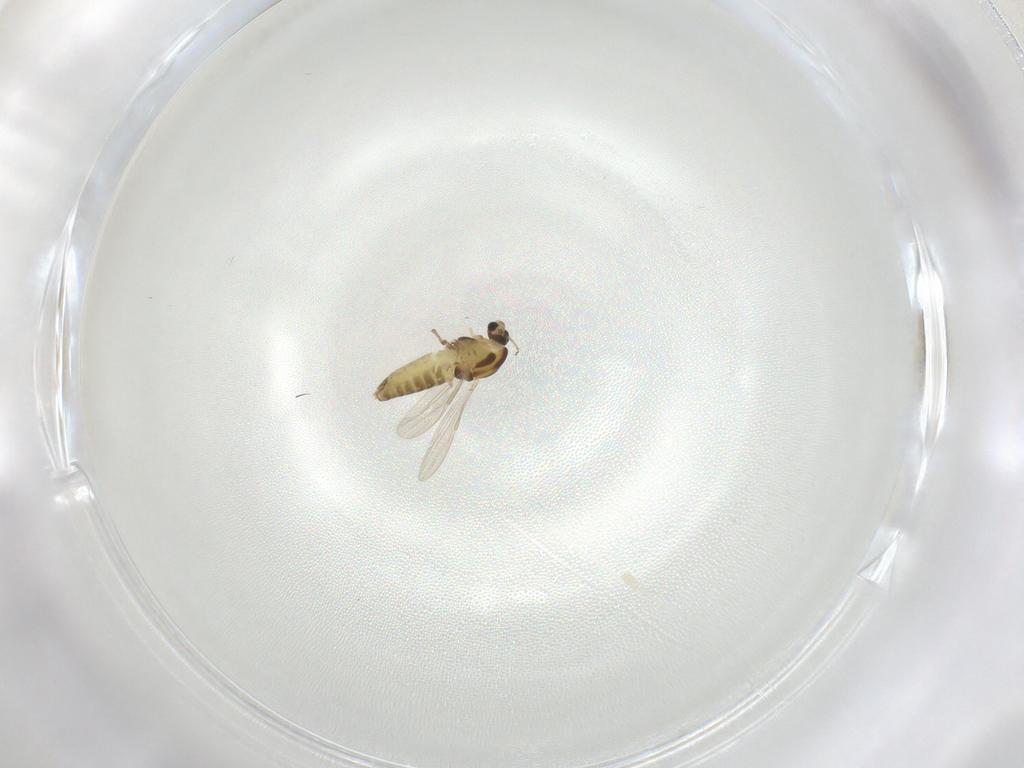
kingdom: Animalia
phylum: Arthropoda
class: Insecta
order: Diptera
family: Chironomidae
